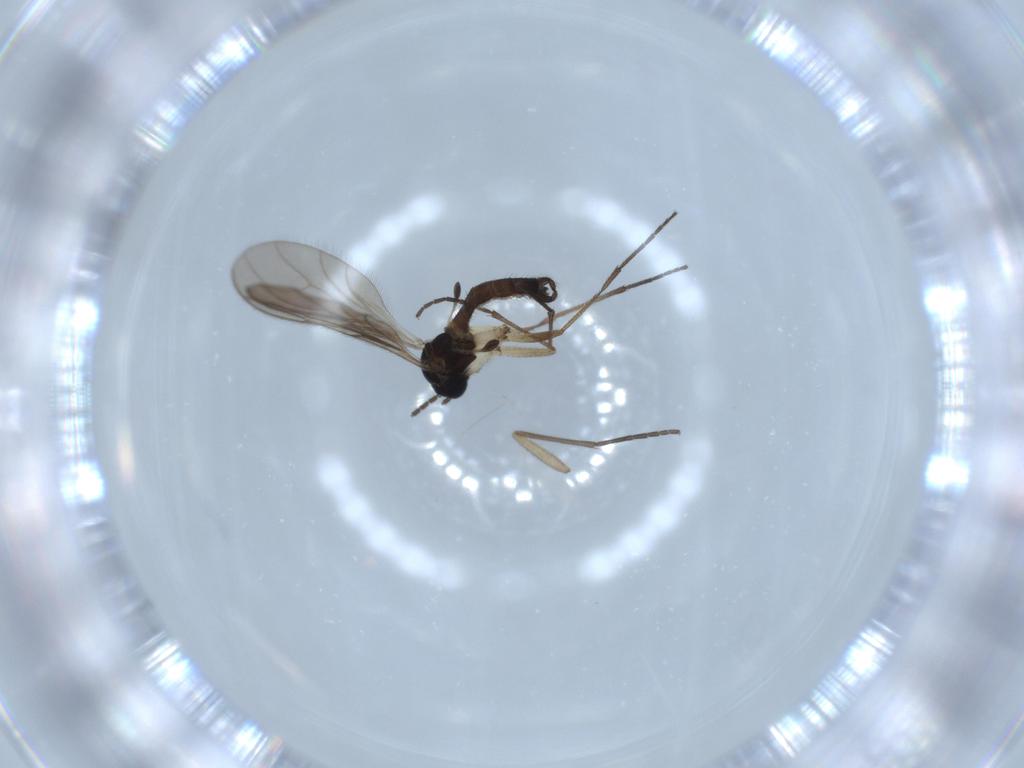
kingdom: Animalia
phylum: Arthropoda
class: Insecta
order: Diptera
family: Sciaridae
